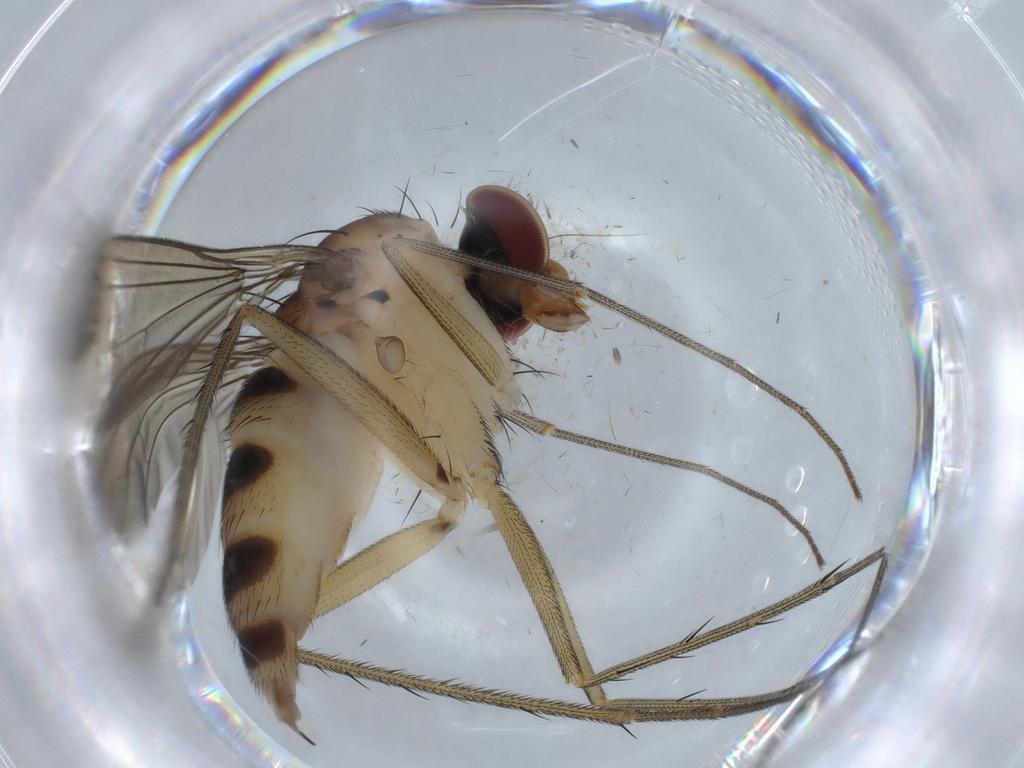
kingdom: Animalia
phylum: Arthropoda
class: Insecta
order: Diptera
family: Dolichopodidae
